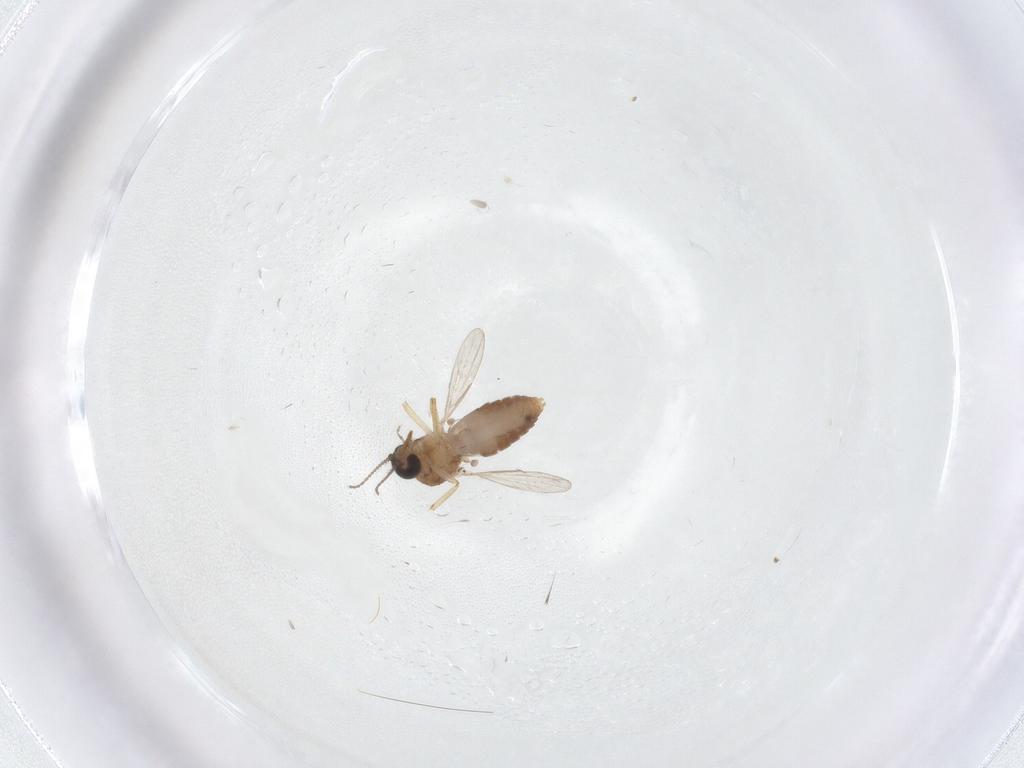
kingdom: Animalia
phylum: Arthropoda
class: Insecta
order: Diptera
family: Ceratopogonidae
